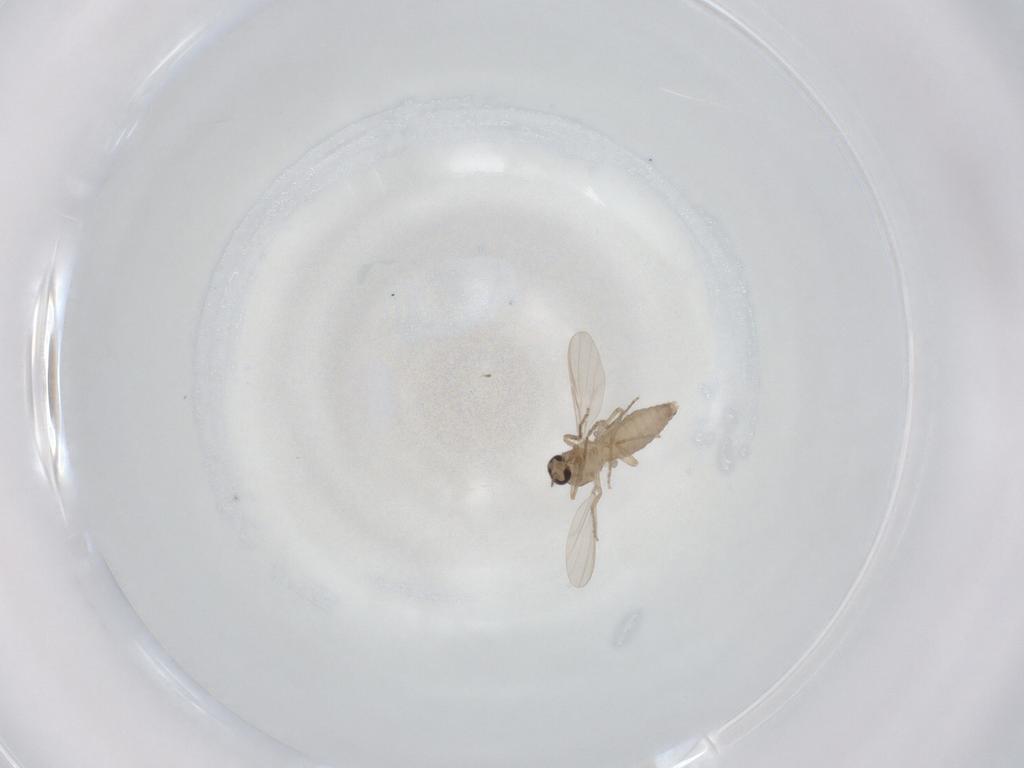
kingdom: Animalia
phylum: Arthropoda
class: Insecta
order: Diptera
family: Ceratopogonidae
